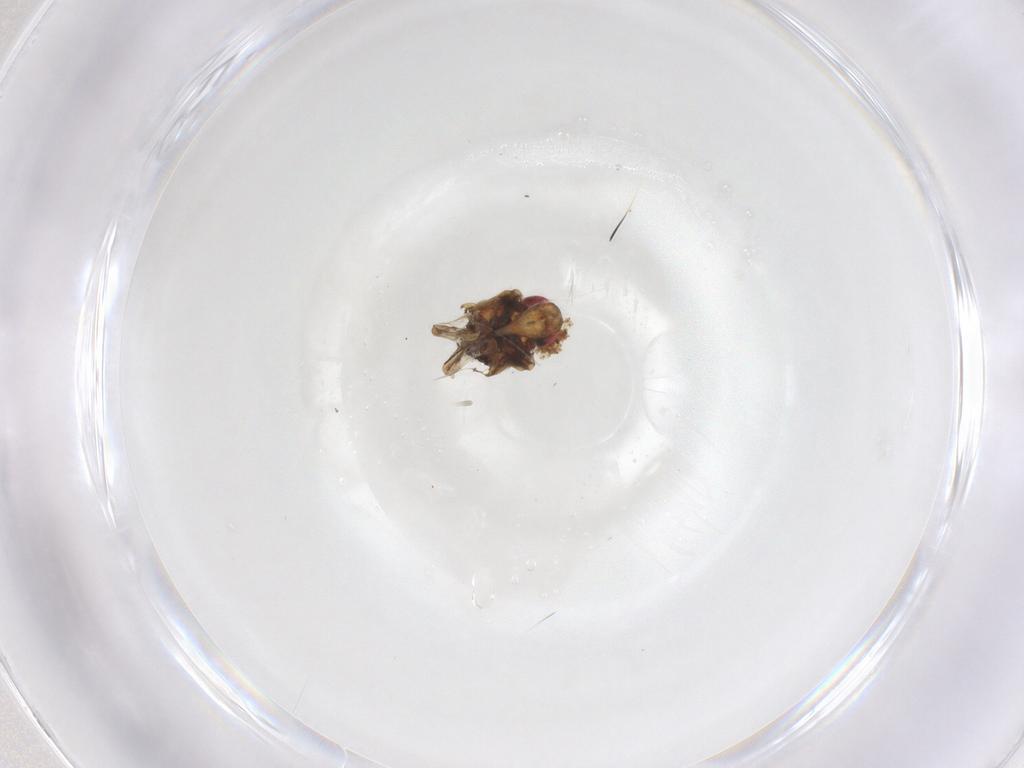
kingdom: Animalia
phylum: Arthropoda
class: Insecta
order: Hemiptera
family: Issidae
